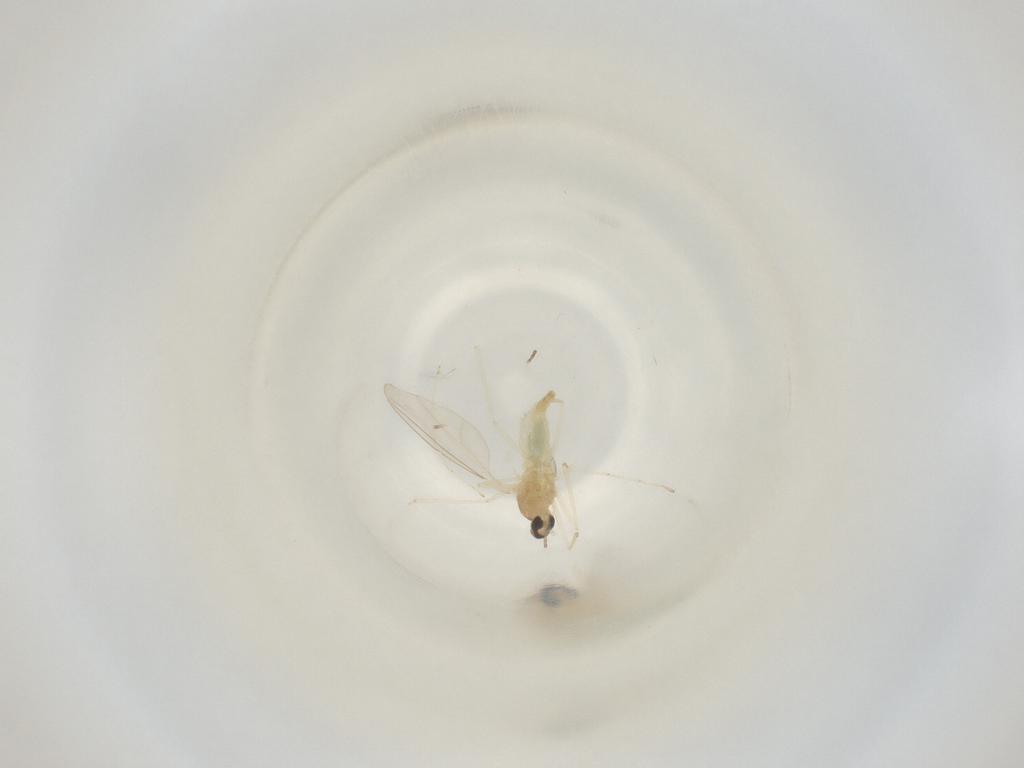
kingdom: Animalia
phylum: Arthropoda
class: Insecta
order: Diptera
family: Cecidomyiidae
